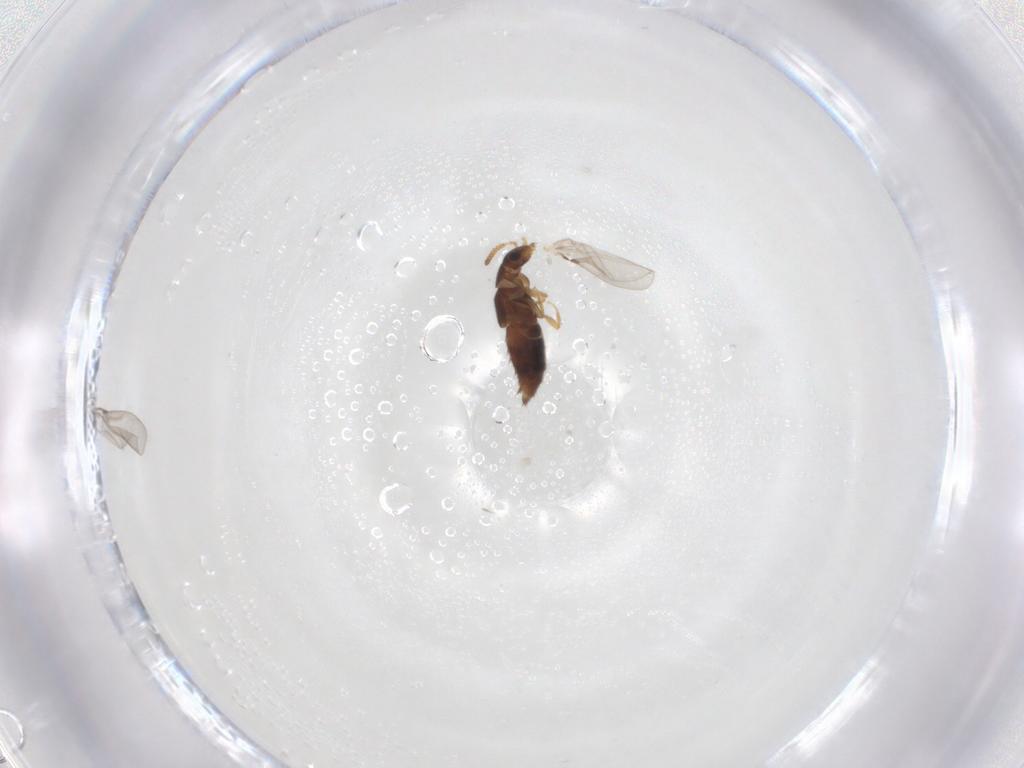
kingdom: Animalia
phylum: Arthropoda
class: Insecta
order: Coleoptera
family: Staphylinidae
